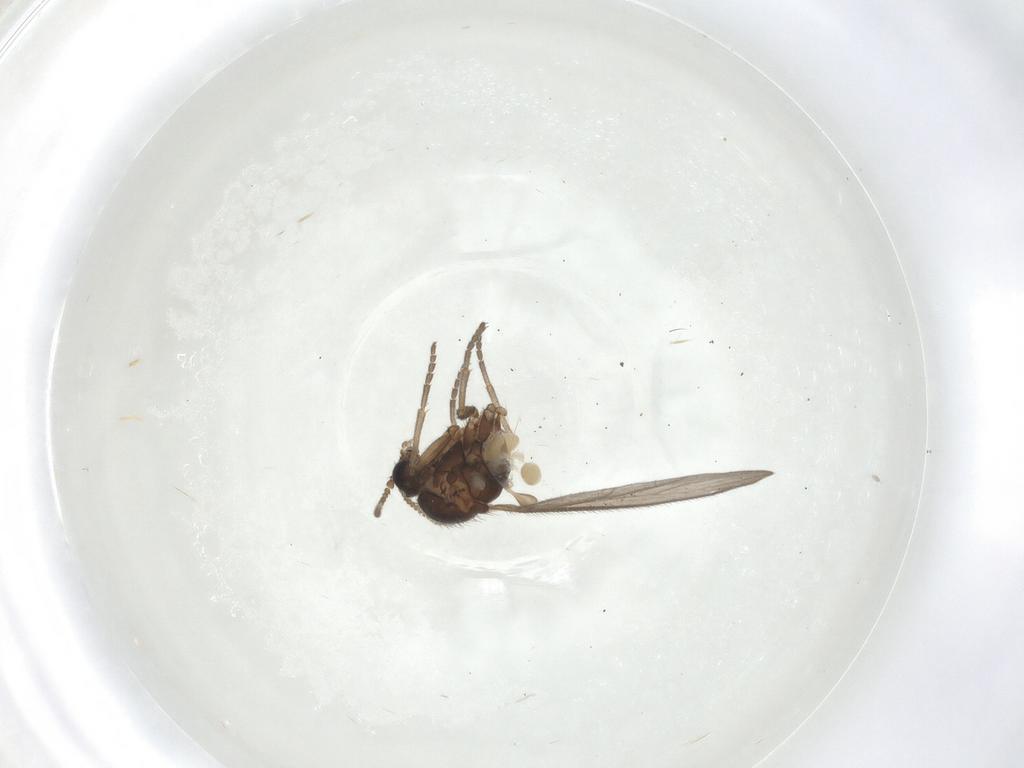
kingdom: Animalia
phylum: Arthropoda
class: Insecta
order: Diptera
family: Sciaridae
